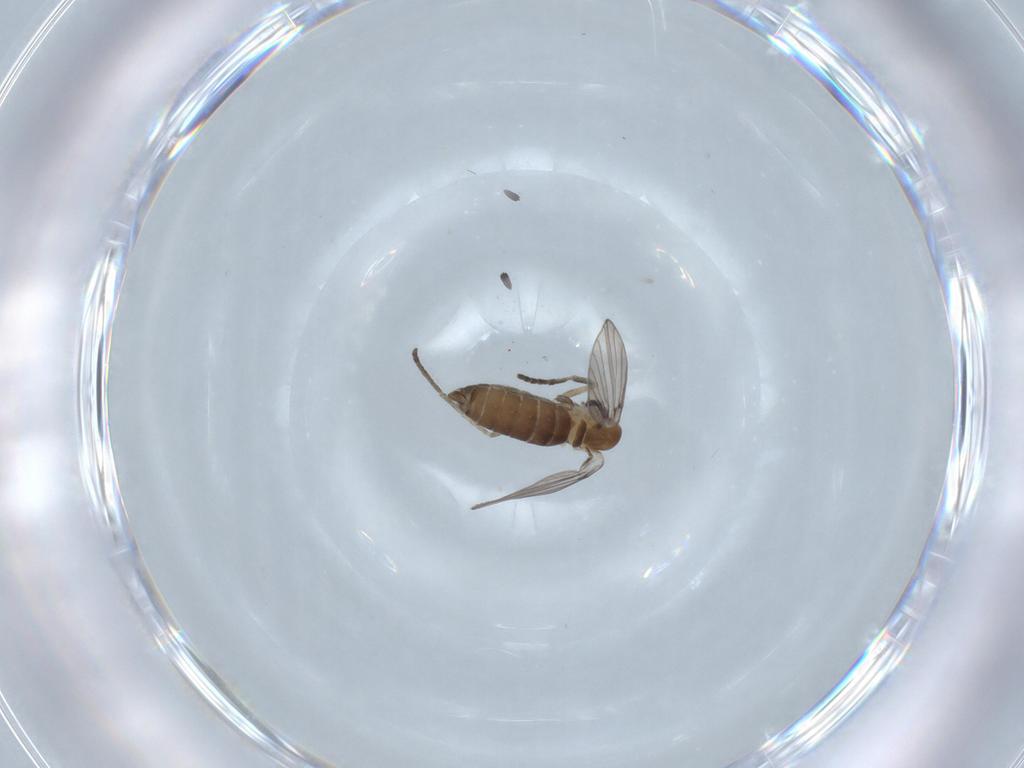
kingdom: Animalia
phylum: Arthropoda
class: Insecta
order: Diptera
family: Psychodidae
